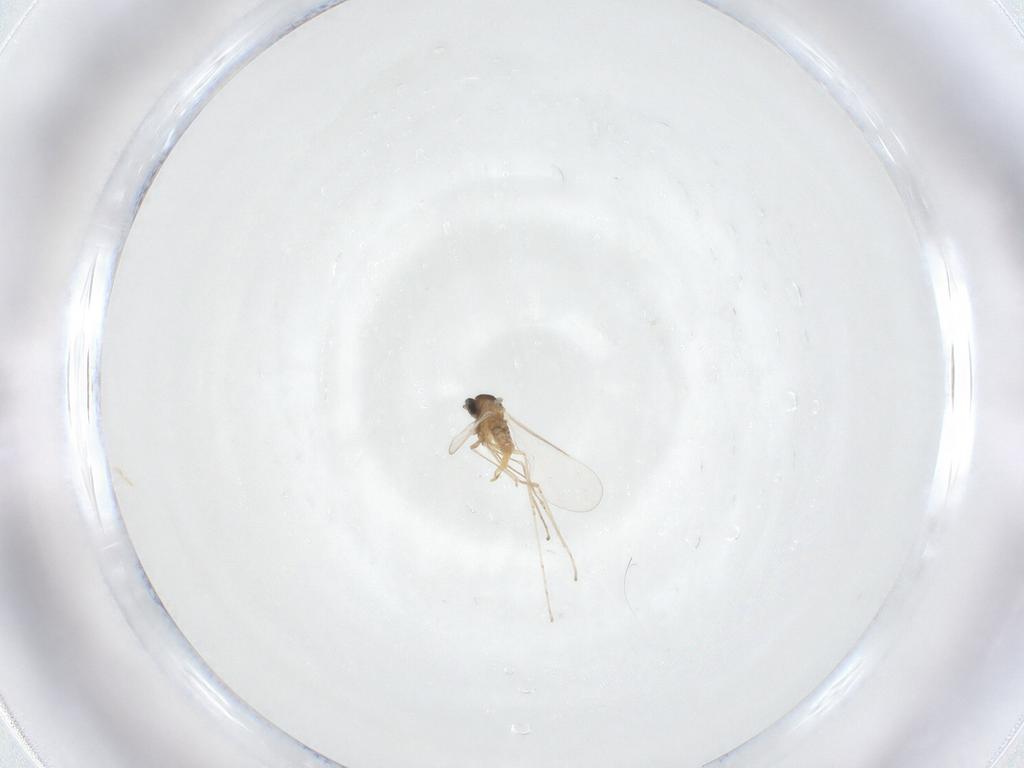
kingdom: Animalia
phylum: Arthropoda
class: Insecta
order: Diptera
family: Cecidomyiidae
